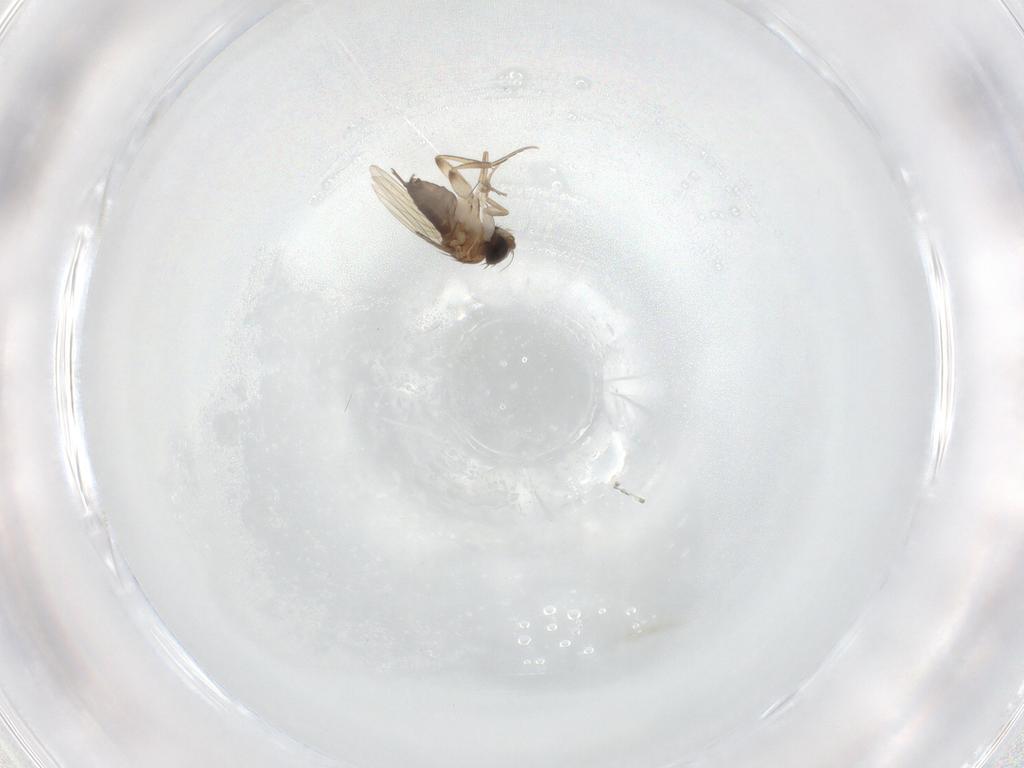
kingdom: Animalia
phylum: Arthropoda
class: Insecta
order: Diptera
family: Phoridae
